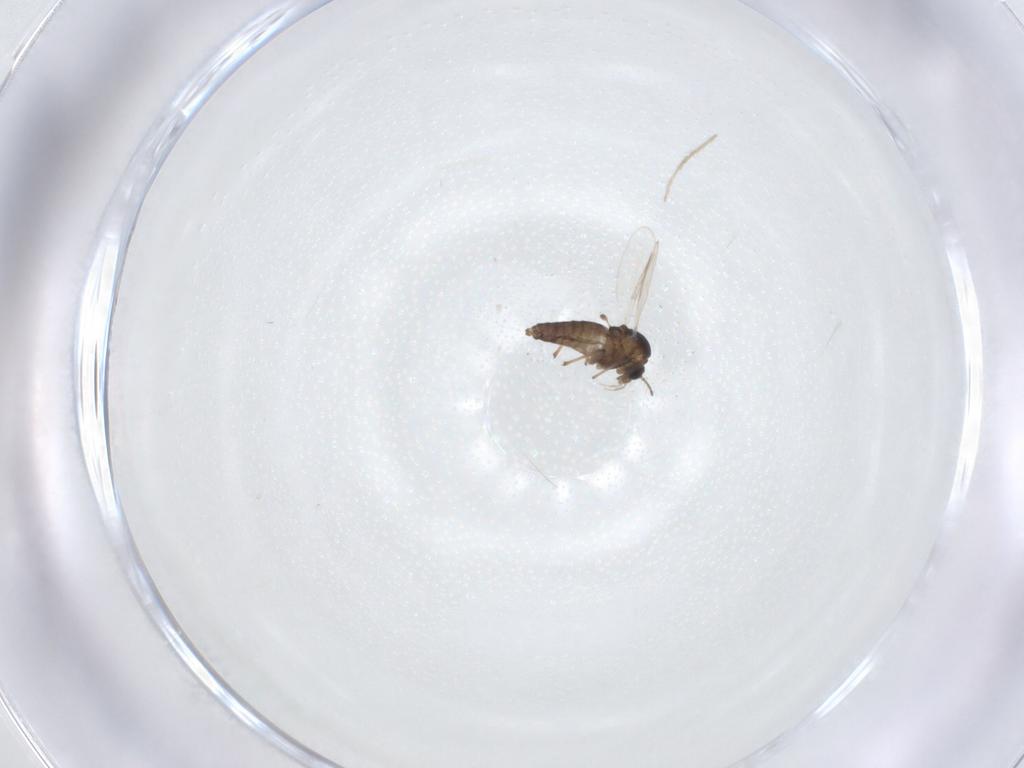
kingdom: Animalia
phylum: Arthropoda
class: Insecta
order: Diptera
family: Chironomidae
